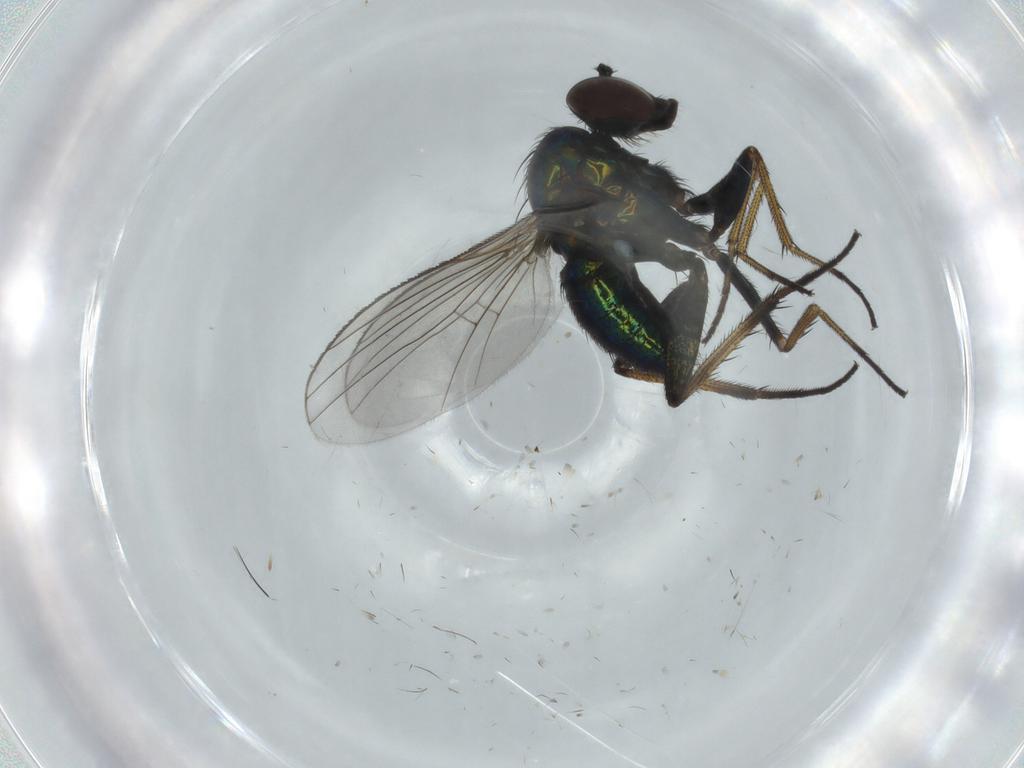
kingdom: Animalia
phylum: Arthropoda
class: Insecta
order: Diptera
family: Dolichopodidae
